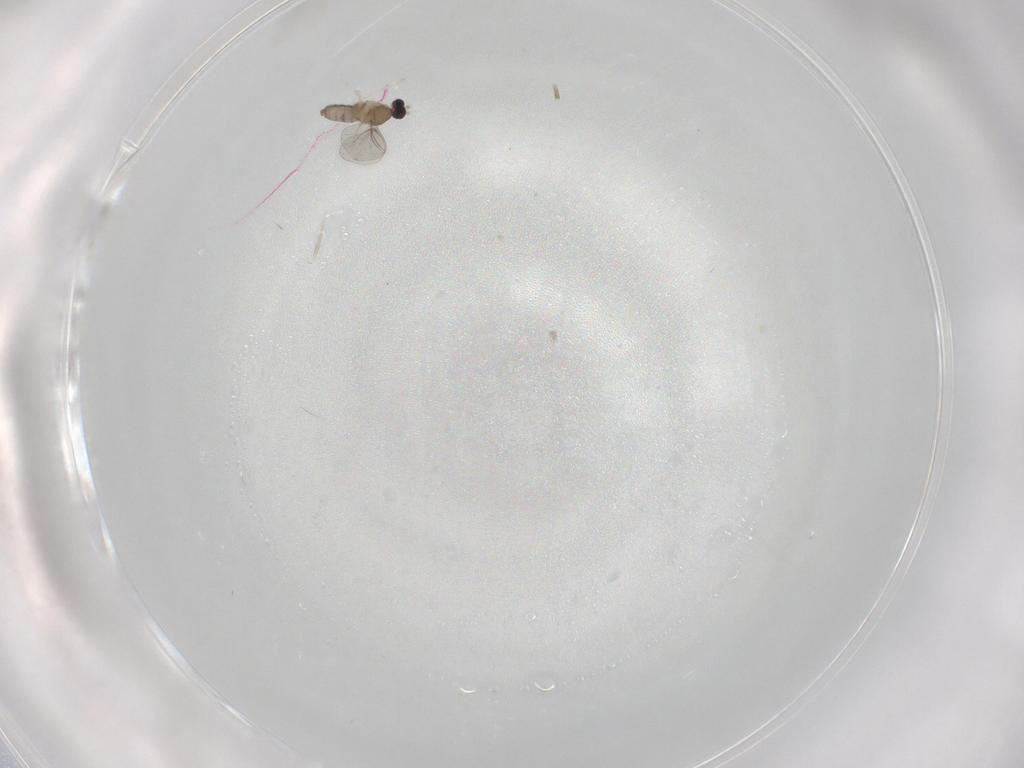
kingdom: Animalia
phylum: Arthropoda
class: Insecta
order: Diptera
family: Cecidomyiidae
